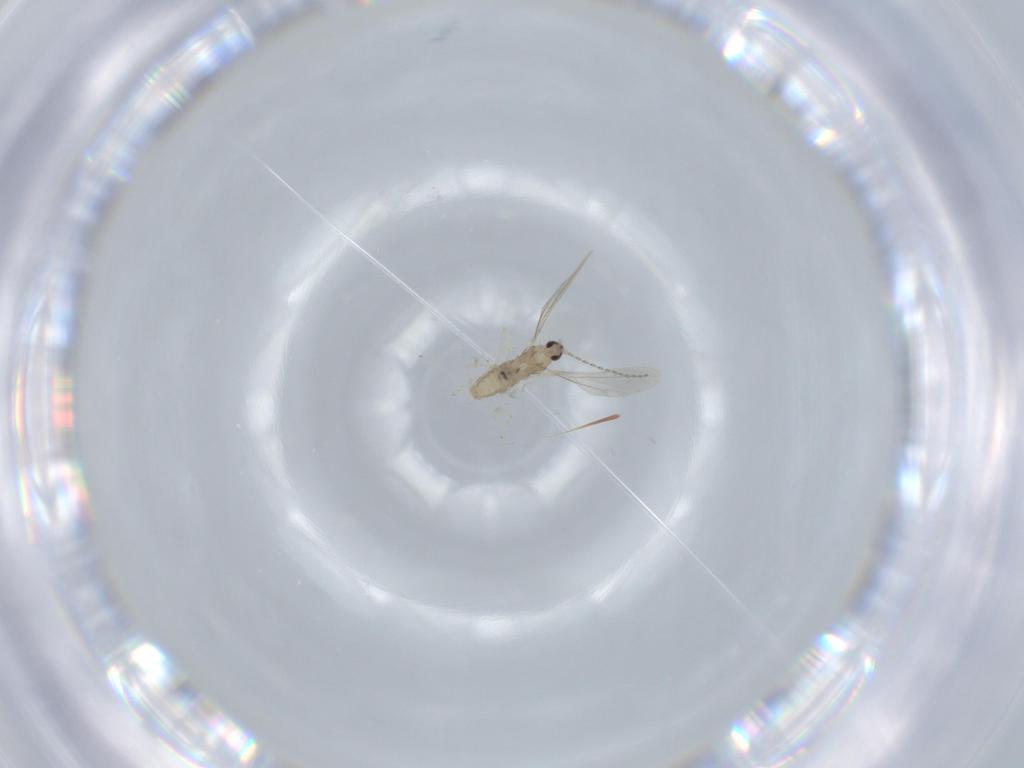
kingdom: Animalia
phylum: Arthropoda
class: Insecta
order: Diptera
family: Cecidomyiidae
